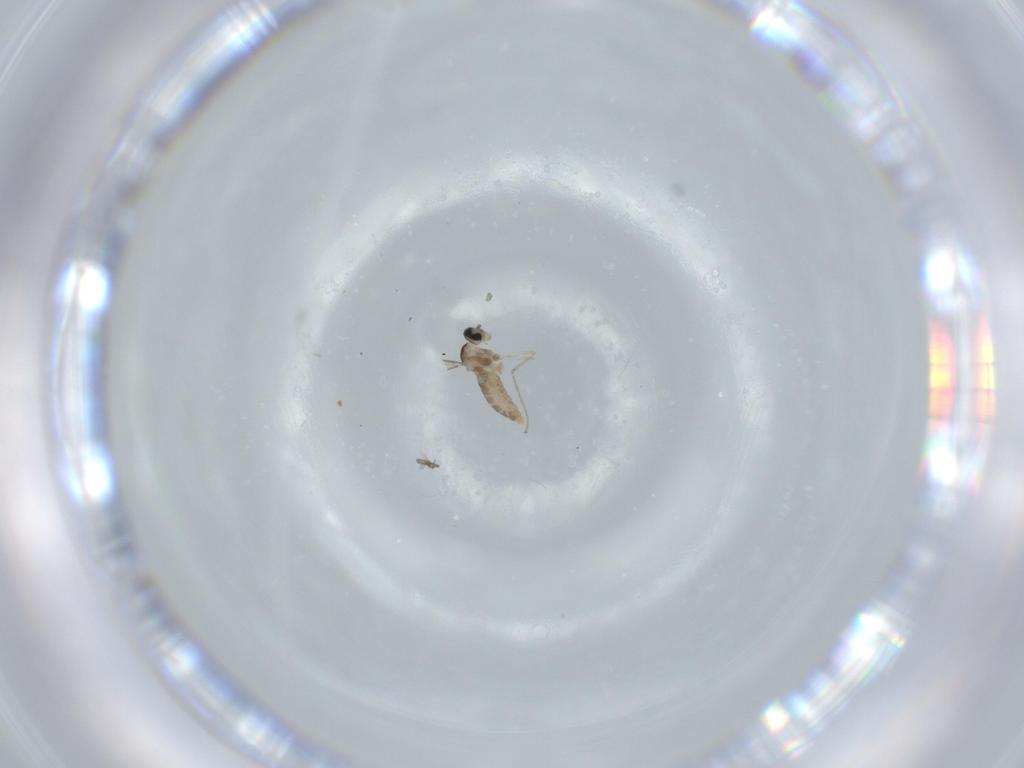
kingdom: Animalia
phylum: Arthropoda
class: Insecta
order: Diptera
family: Cecidomyiidae
